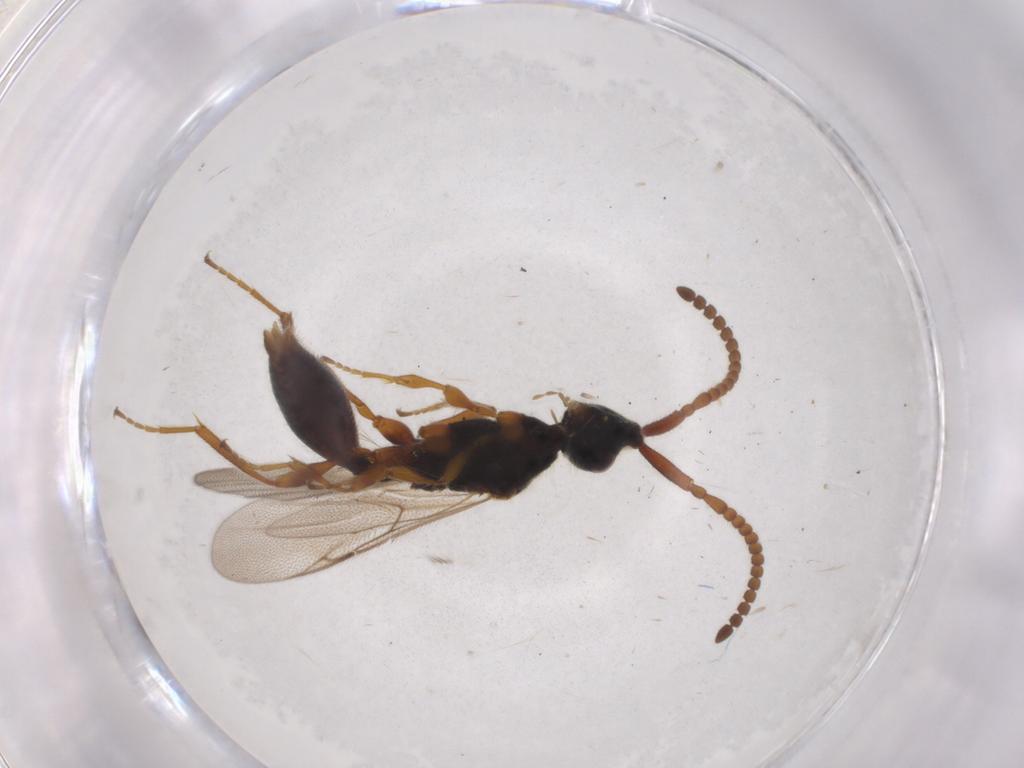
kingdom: Animalia
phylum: Arthropoda
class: Insecta
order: Hymenoptera
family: Diapriidae
